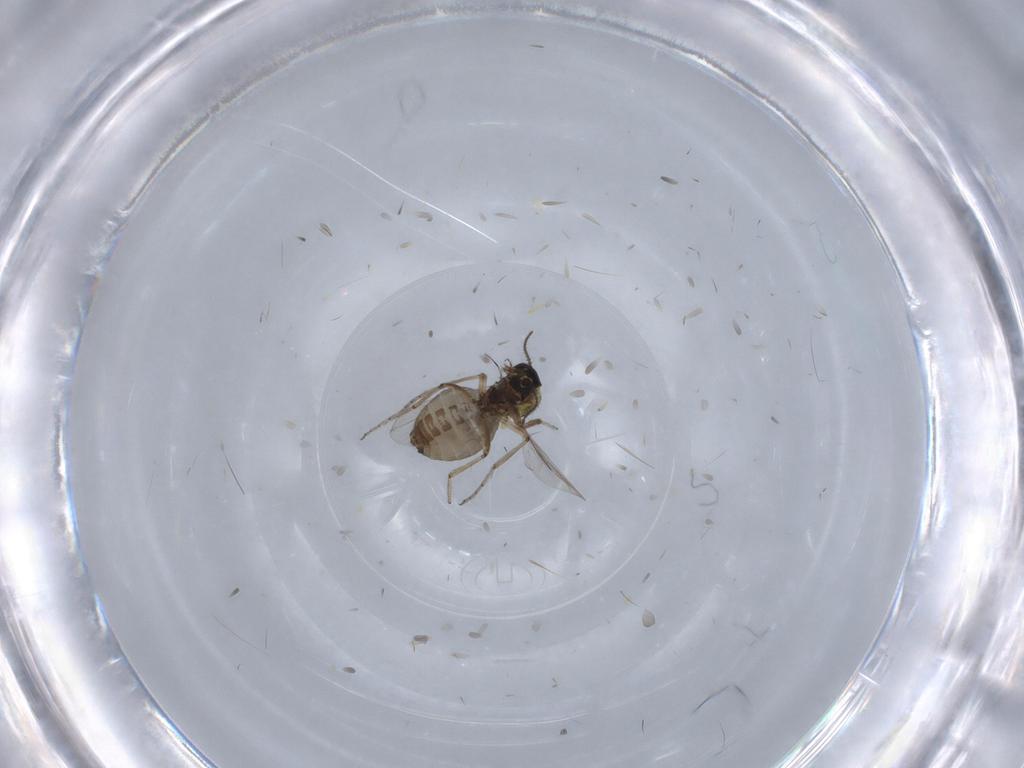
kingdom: Animalia
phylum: Arthropoda
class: Insecta
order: Diptera
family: Ceratopogonidae
